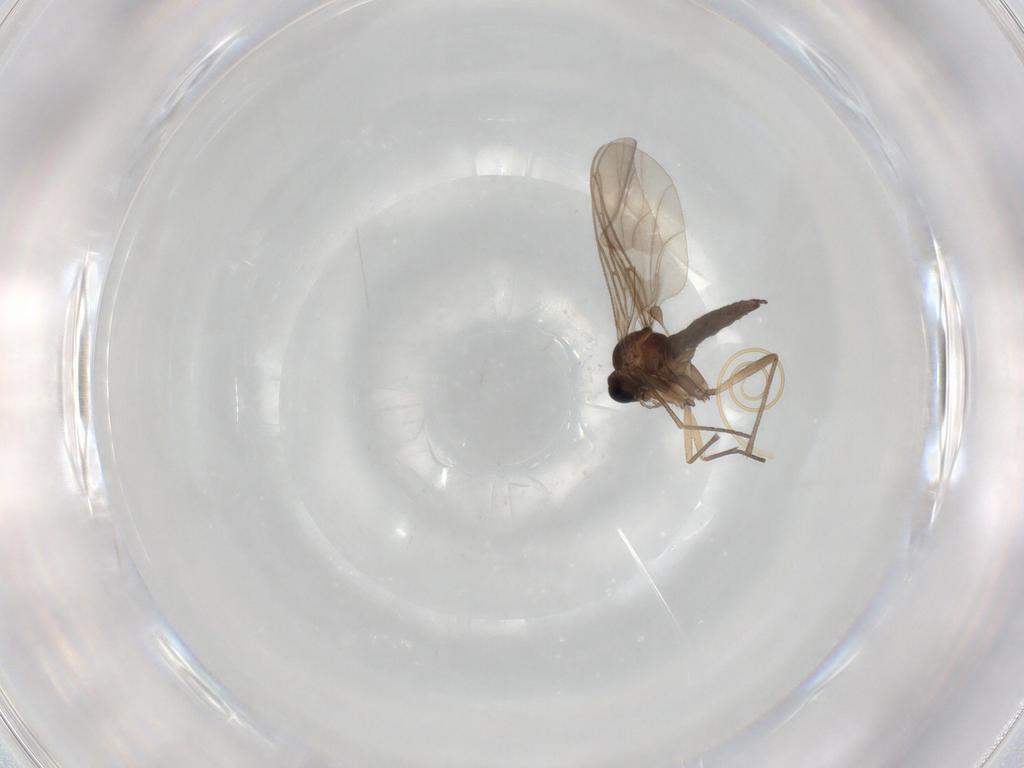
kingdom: Animalia
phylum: Arthropoda
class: Insecta
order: Diptera
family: Sciaridae
